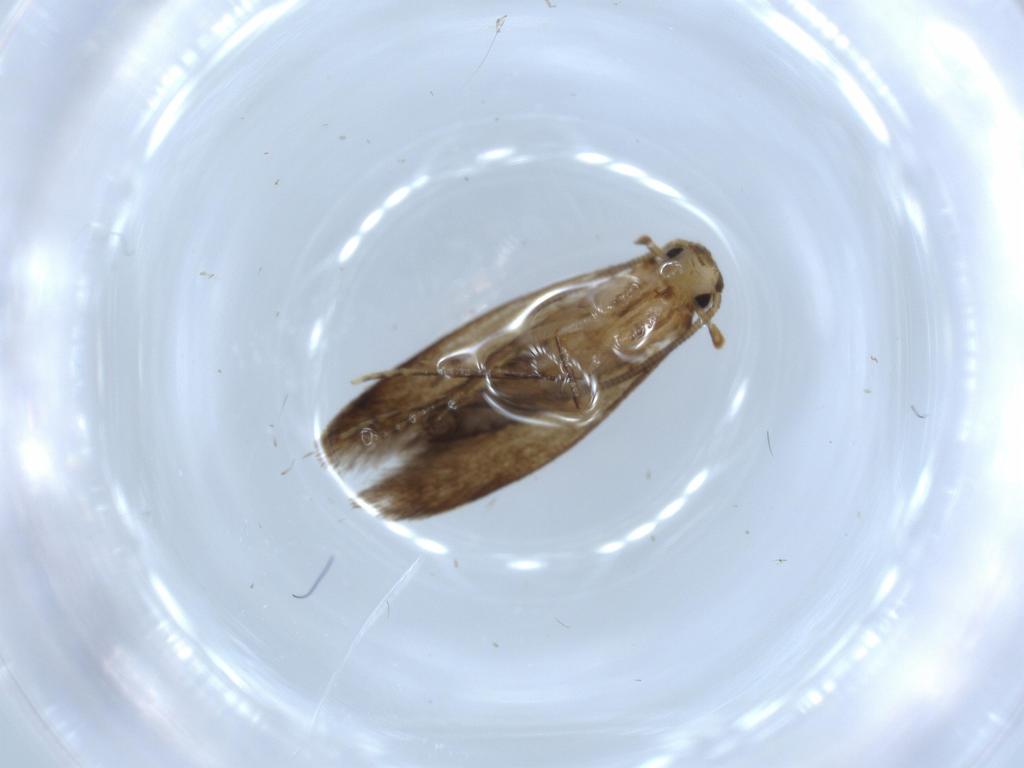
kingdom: Animalia
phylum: Arthropoda
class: Insecta
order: Lepidoptera
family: Tineidae
